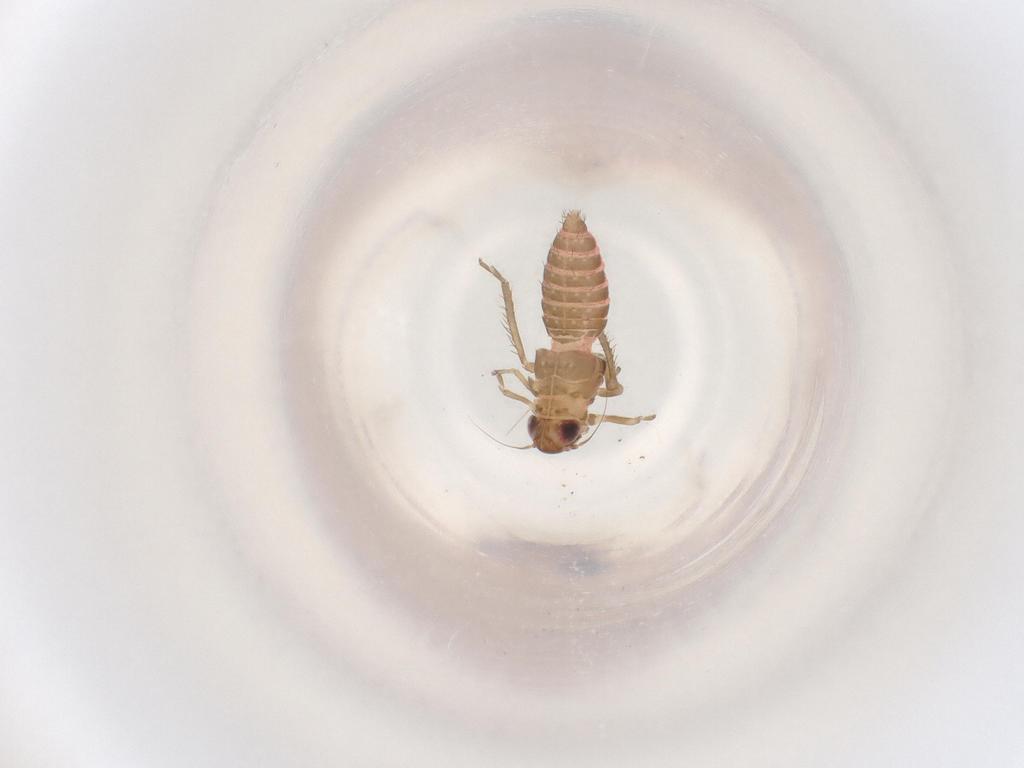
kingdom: Animalia
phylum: Arthropoda
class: Insecta
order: Hemiptera
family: Cicadellidae
